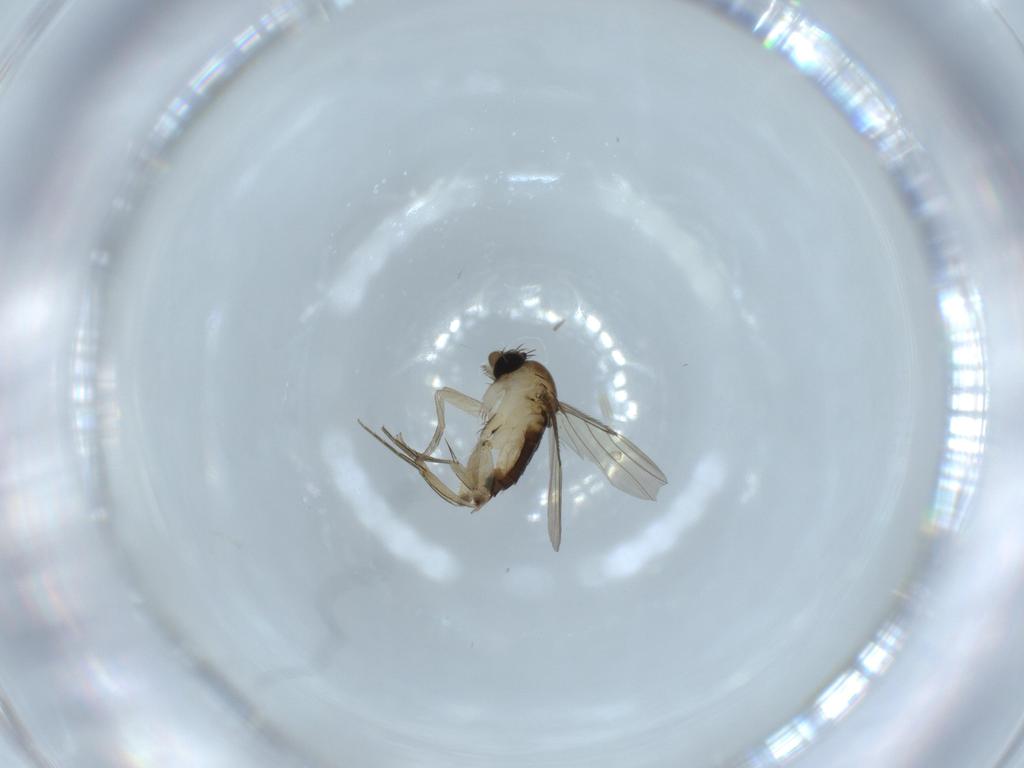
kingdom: Animalia
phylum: Arthropoda
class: Insecta
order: Diptera
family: Phoridae
